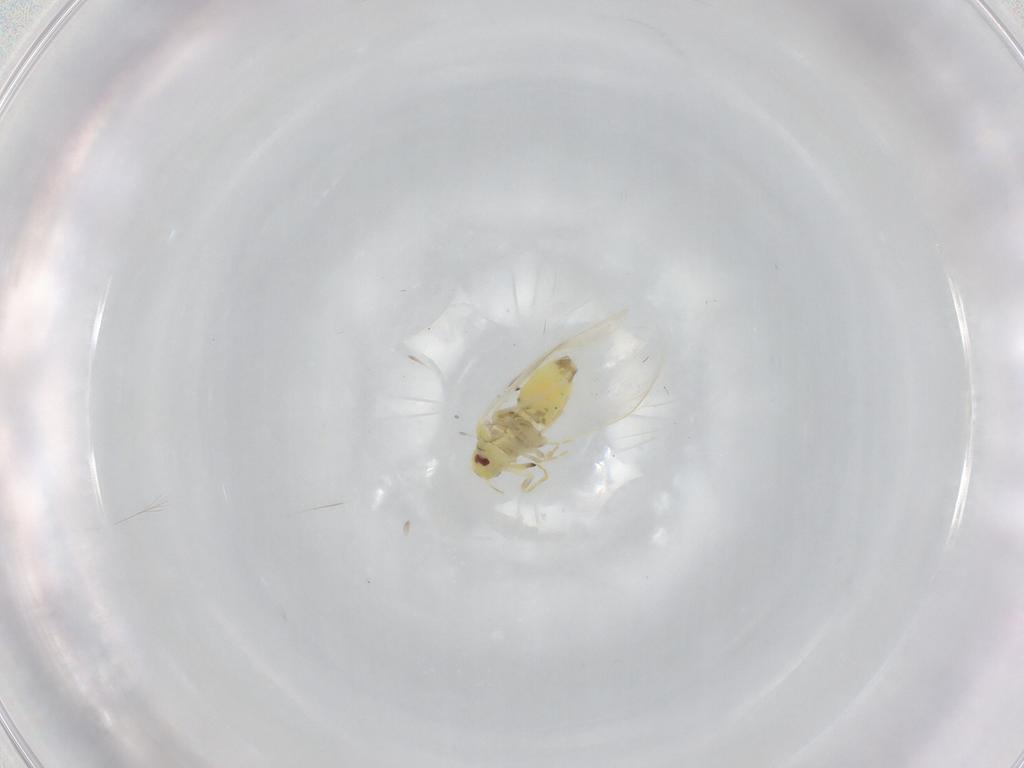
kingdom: Animalia
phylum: Arthropoda
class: Insecta
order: Hemiptera
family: Aleyrodidae
